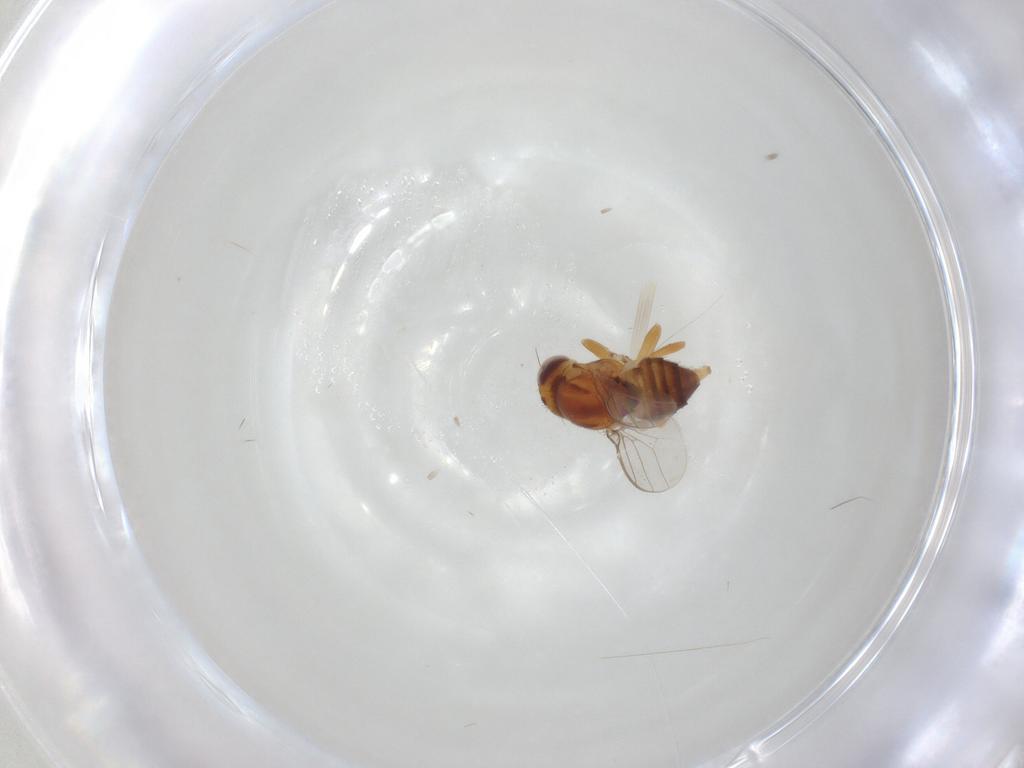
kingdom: Animalia
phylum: Arthropoda
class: Insecta
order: Diptera
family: Chloropidae
